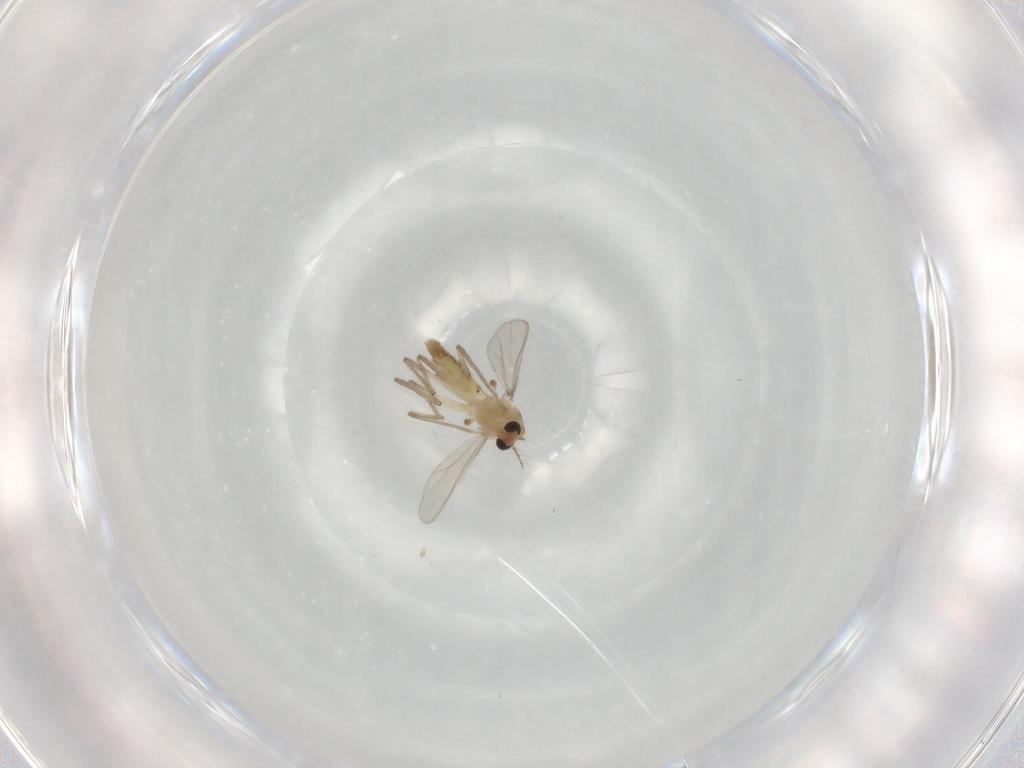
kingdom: Animalia
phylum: Arthropoda
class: Insecta
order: Diptera
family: Chironomidae
